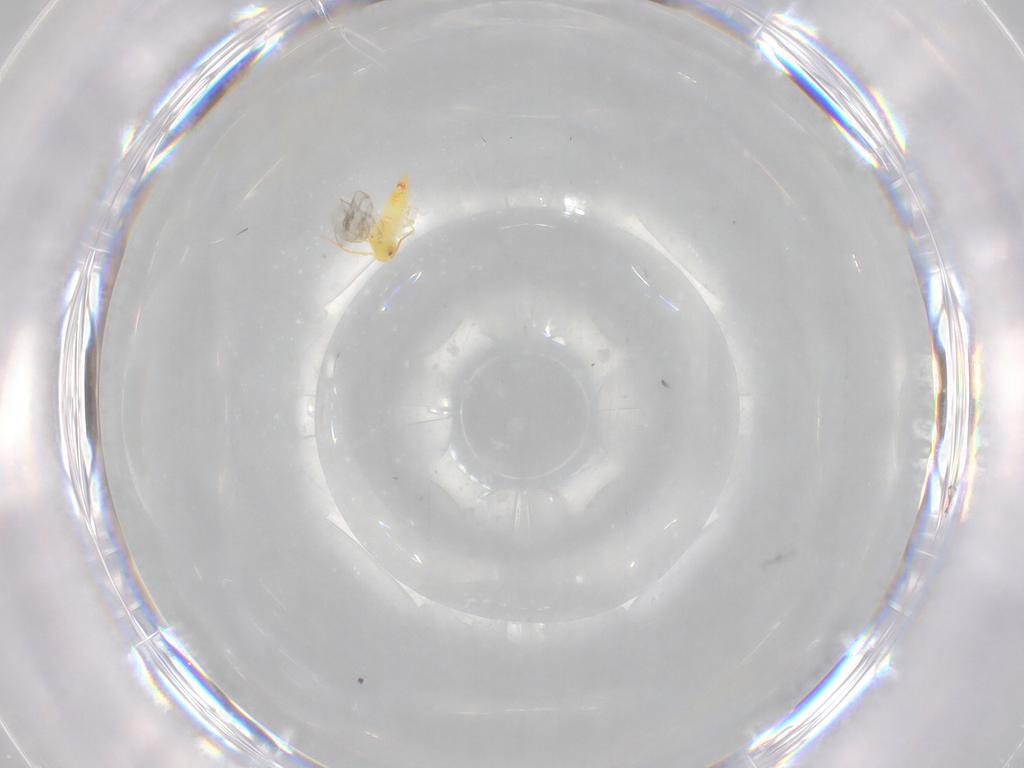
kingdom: Animalia
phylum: Arthropoda
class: Insecta
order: Hemiptera
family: Aleyrodidae
